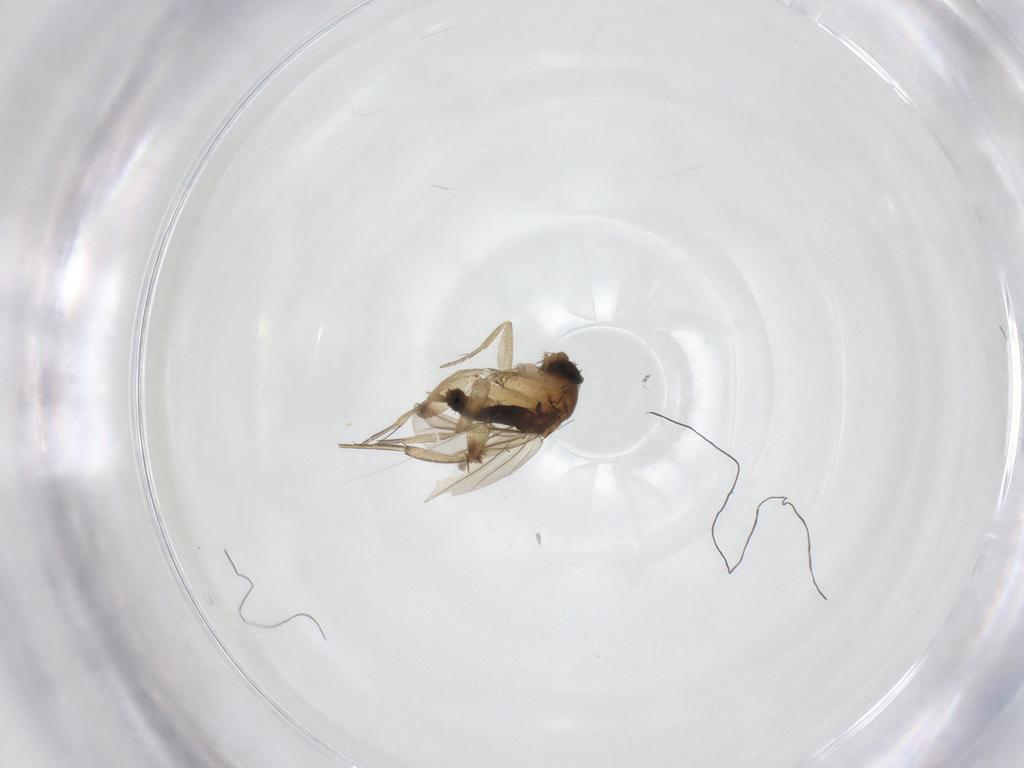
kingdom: Animalia
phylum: Arthropoda
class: Insecta
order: Diptera
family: Phoridae
